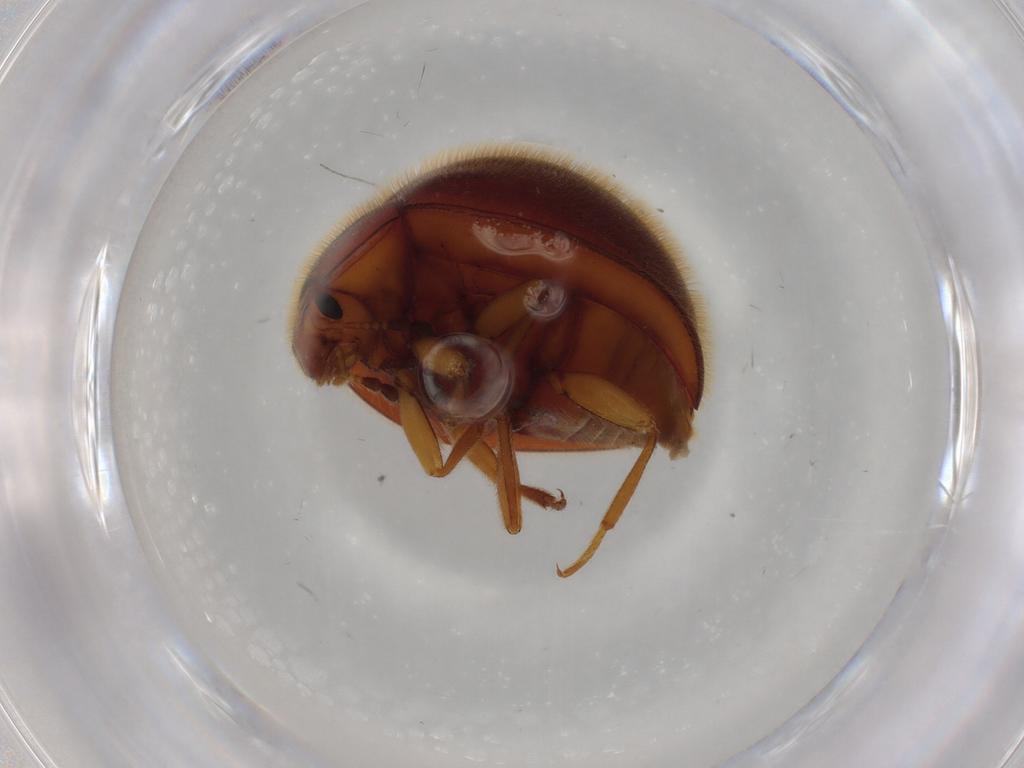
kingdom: Animalia
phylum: Arthropoda
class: Insecta
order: Coleoptera
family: Anamorphidae
